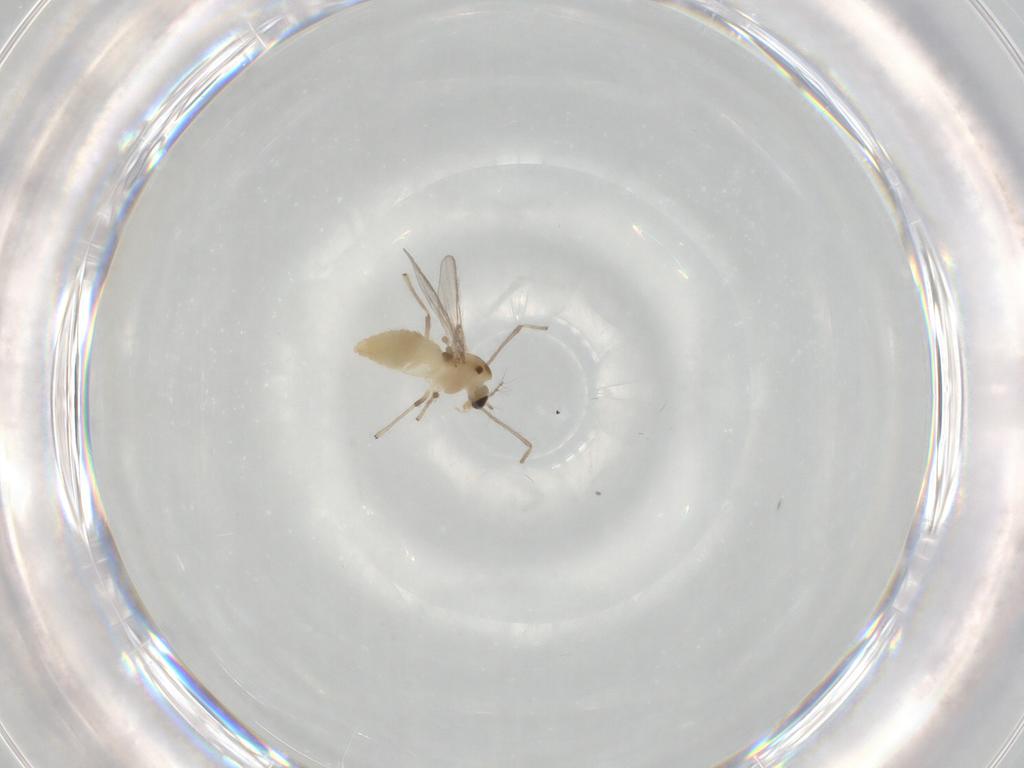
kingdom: Animalia
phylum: Arthropoda
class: Insecta
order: Diptera
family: Chironomidae
